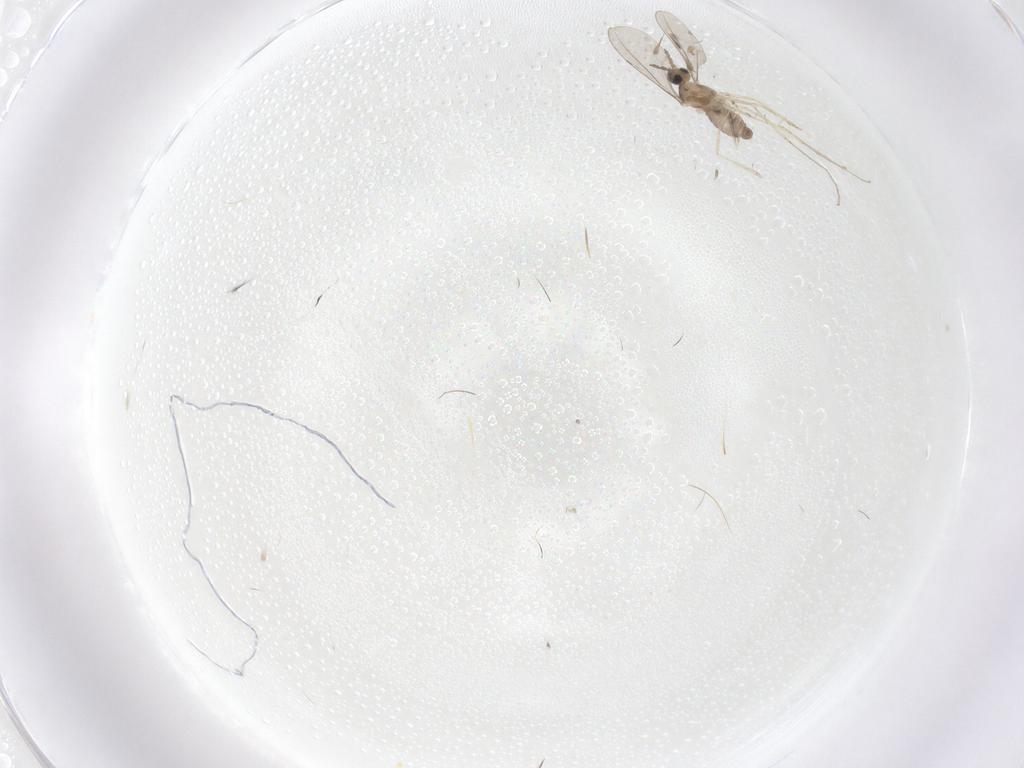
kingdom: Animalia
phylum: Arthropoda
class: Insecta
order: Diptera
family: Cecidomyiidae
